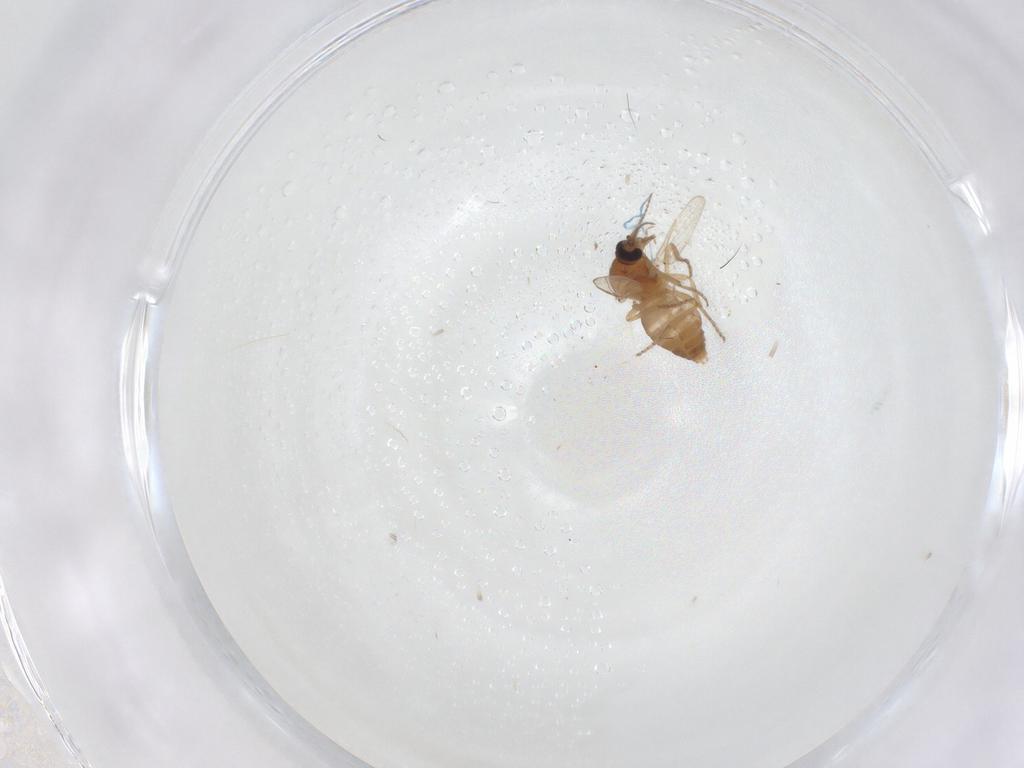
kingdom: Animalia
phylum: Arthropoda
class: Insecta
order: Diptera
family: Ceratopogonidae
